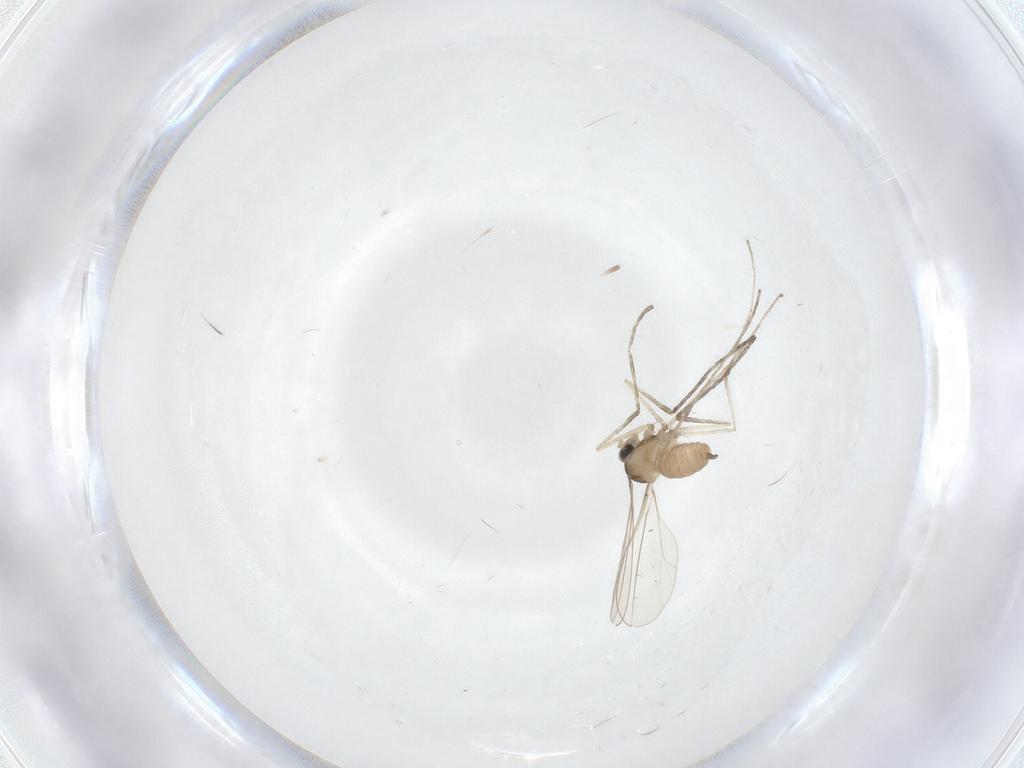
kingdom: Animalia
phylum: Arthropoda
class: Insecta
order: Diptera
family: Cecidomyiidae
